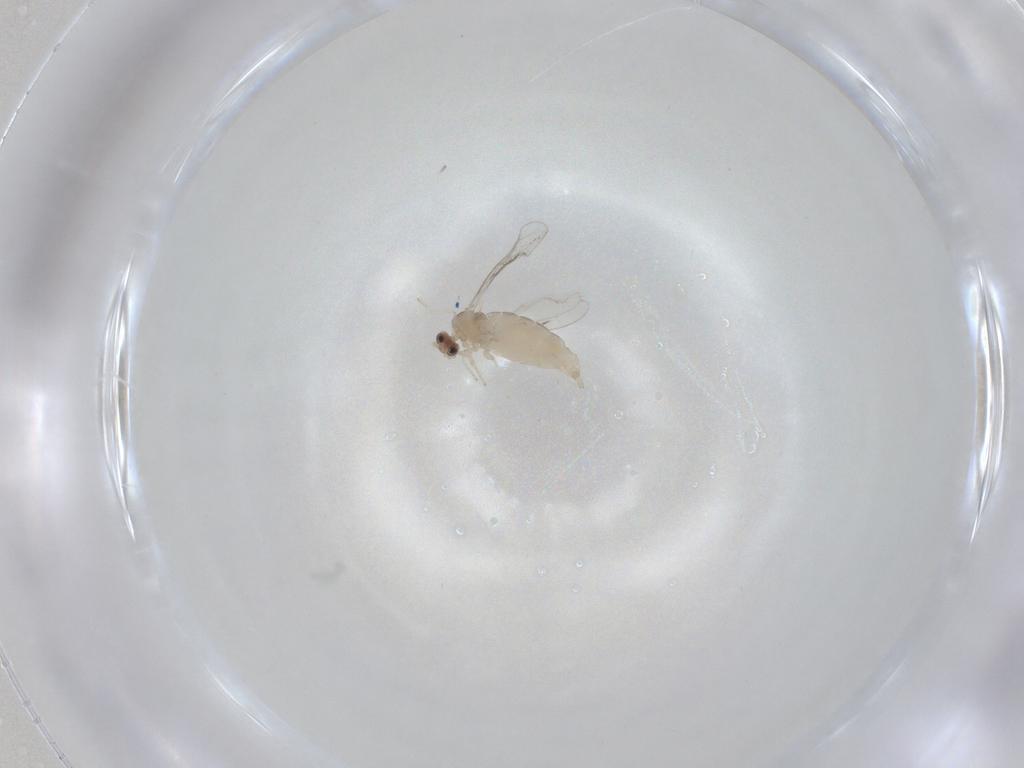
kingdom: Animalia
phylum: Arthropoda
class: Insecta
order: Diptera
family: Cecidomyiidae
